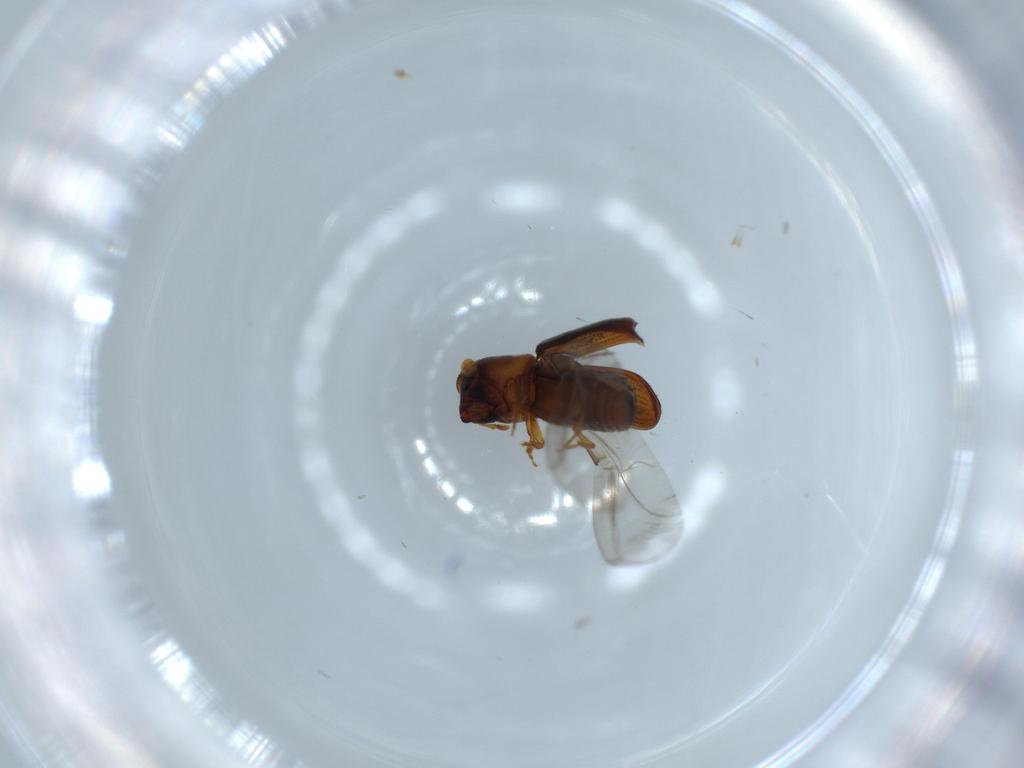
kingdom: Animalia
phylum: Arthropoda
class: Insecta
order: Coleoptera
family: Curculionidae
